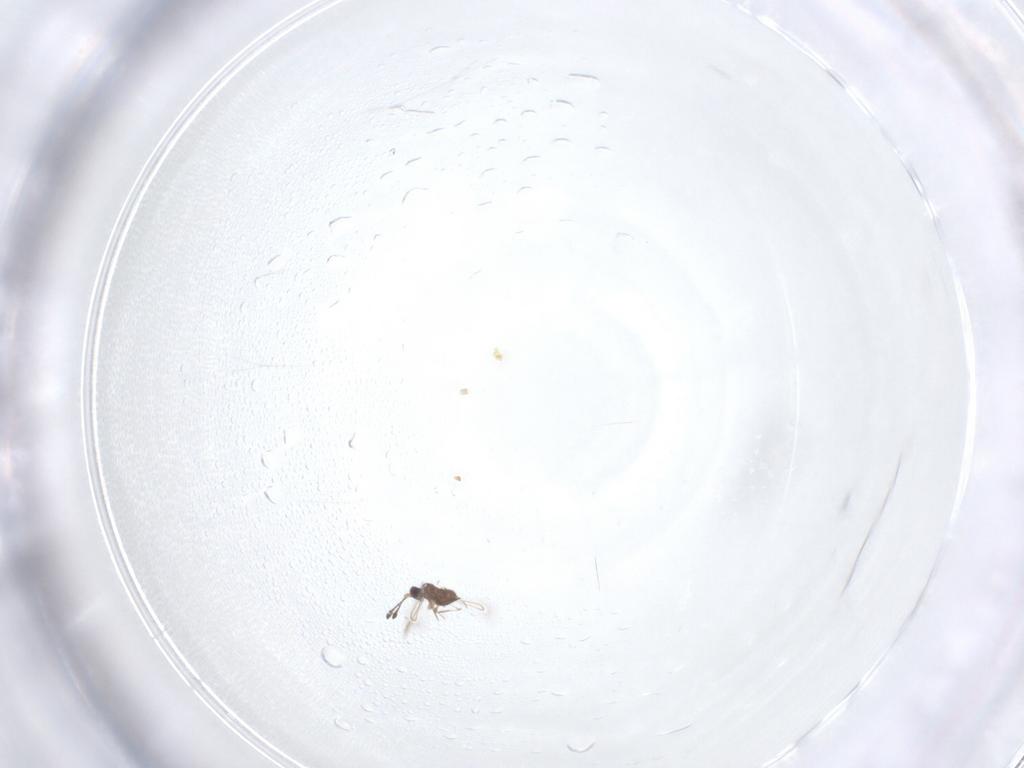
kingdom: Animalia
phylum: Arthropoda
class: Insecta
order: Hymenoptera
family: Mymaridae
